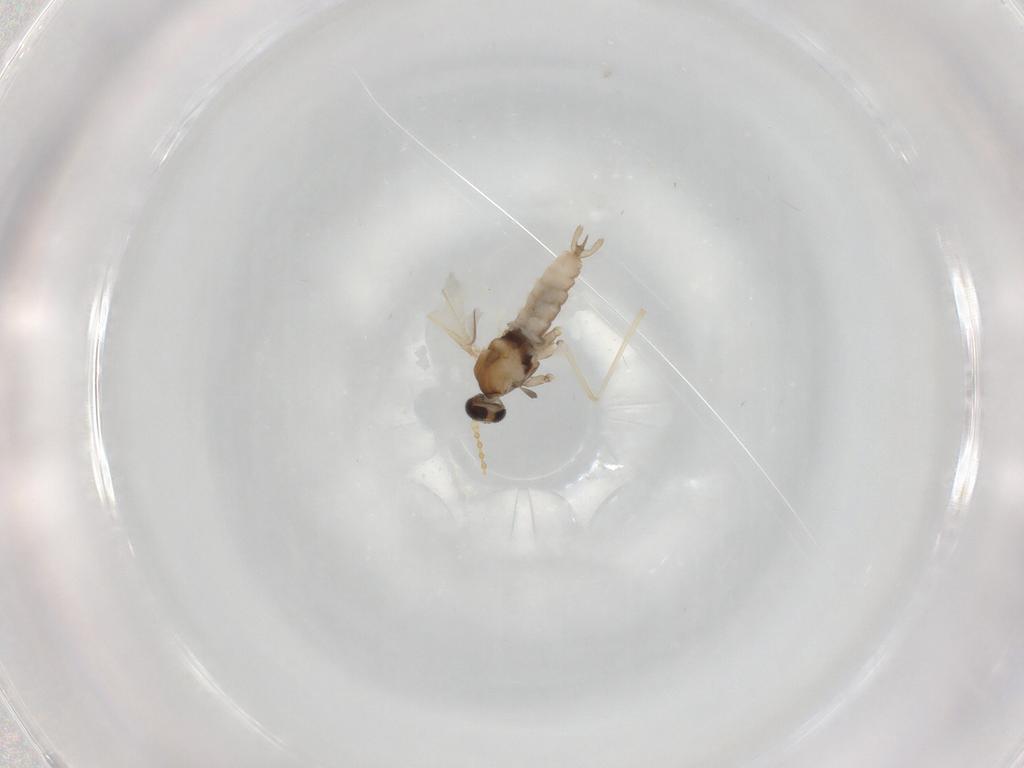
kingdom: Animalia
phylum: Arthropoda
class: Insecta
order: Diptera
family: Cecidomyiidae
